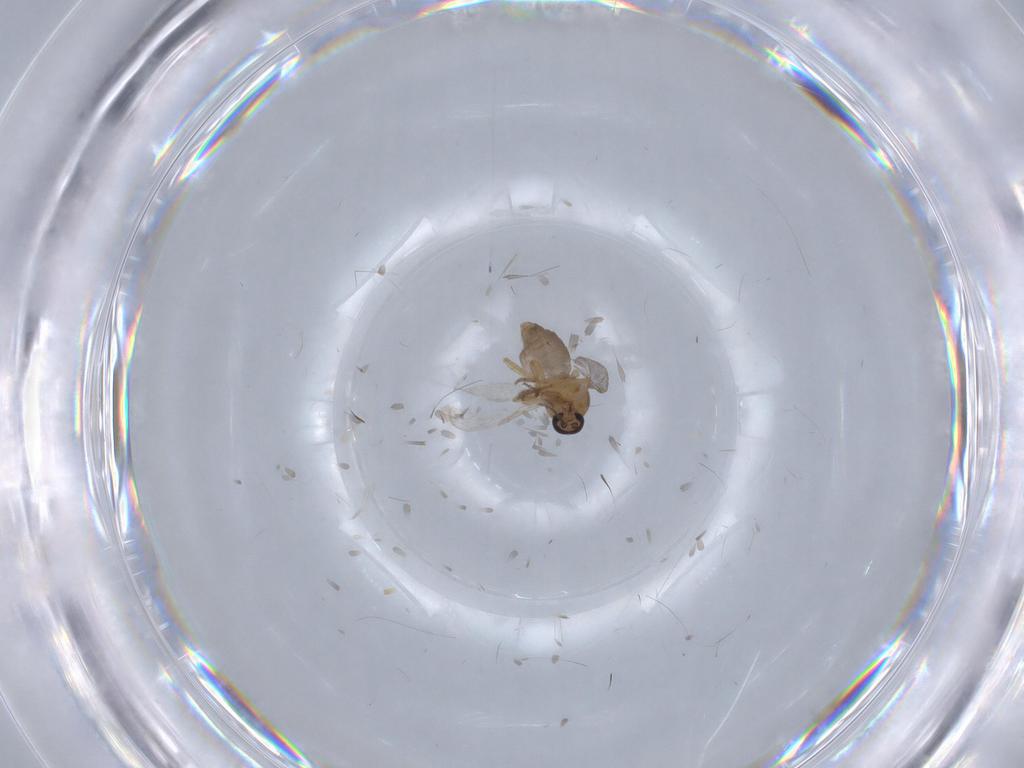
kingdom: Animalia
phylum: Arthropoda
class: Insecta
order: Diptera
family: Ceratopogonidae
